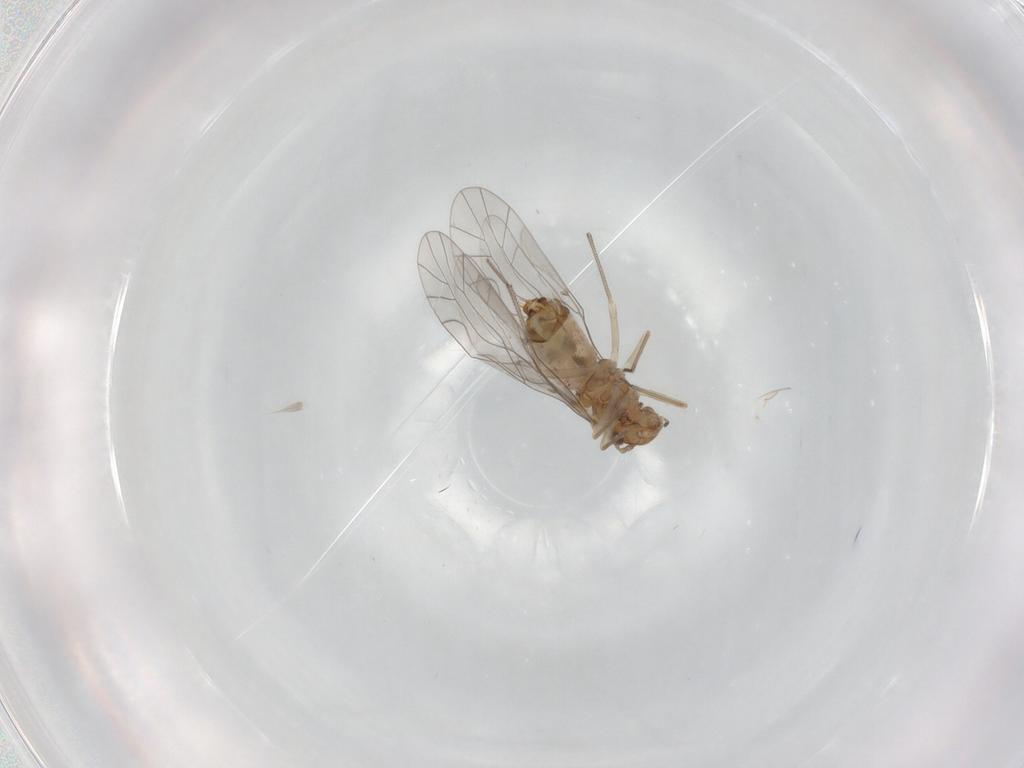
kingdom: Animalia
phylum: Arthropoda
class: Insecta
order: Psocodea
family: Lachesillidae
